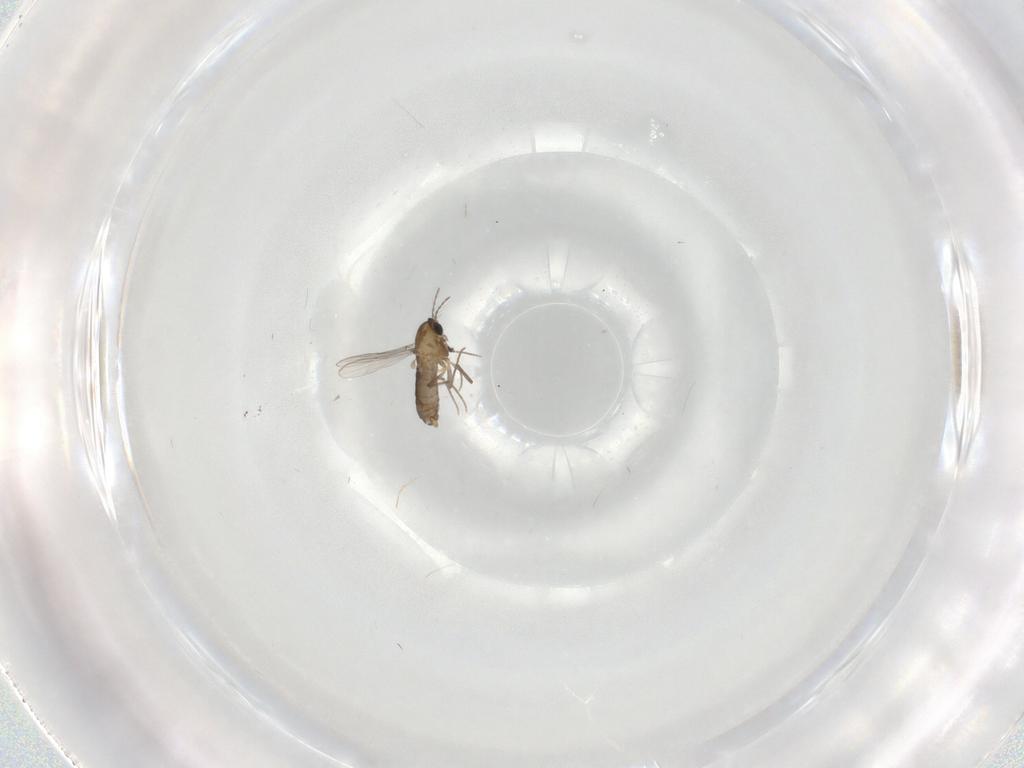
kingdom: Animalia
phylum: Arthropoda
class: Insecta
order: Diptera
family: Chironomidae
